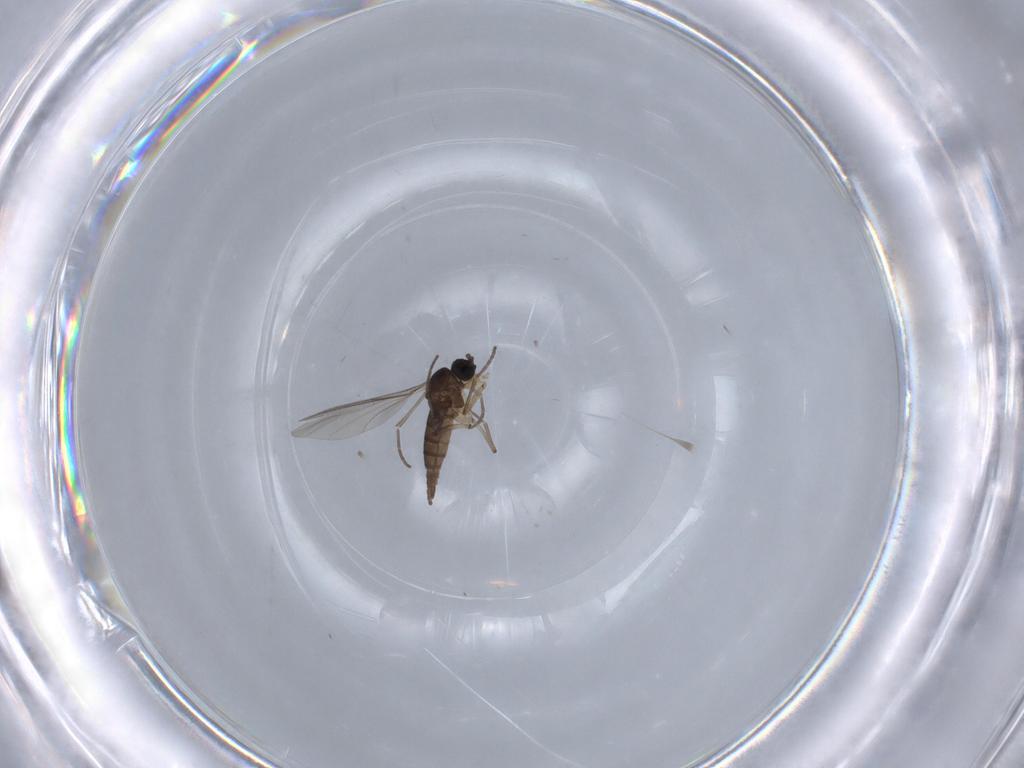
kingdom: Animalia
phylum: Arthropoda
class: Insecta
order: Diptera
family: Sciaridae
